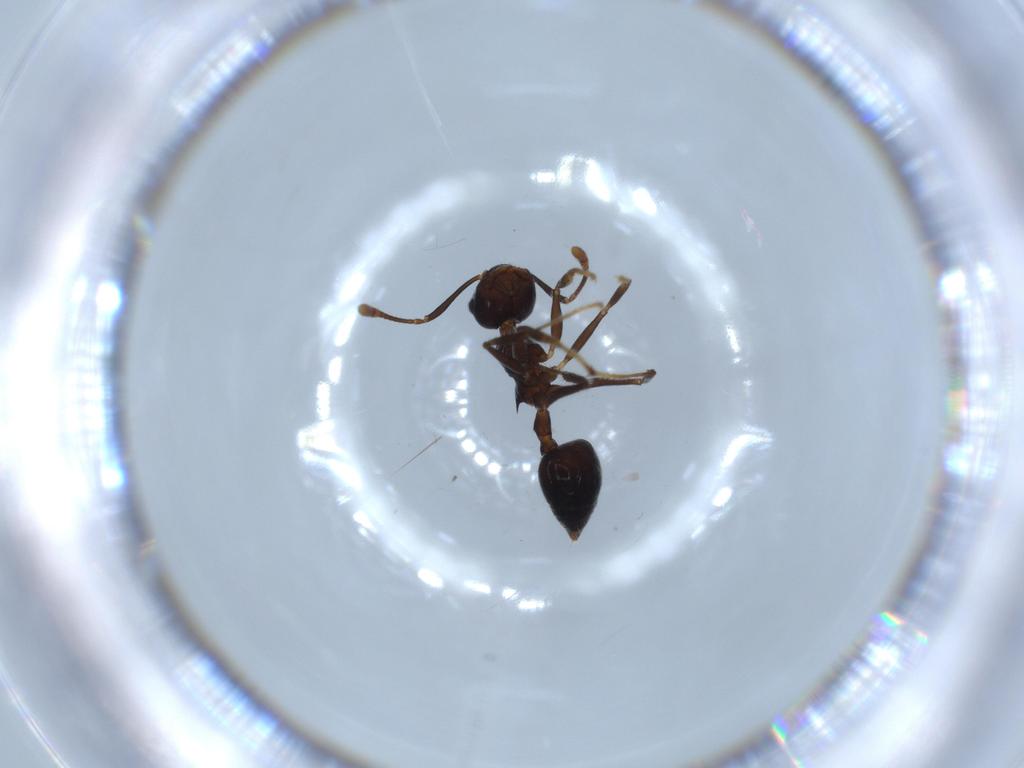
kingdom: Animalia
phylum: Arthropoda
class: Insecta
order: Hymenoptera
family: Formicidae
